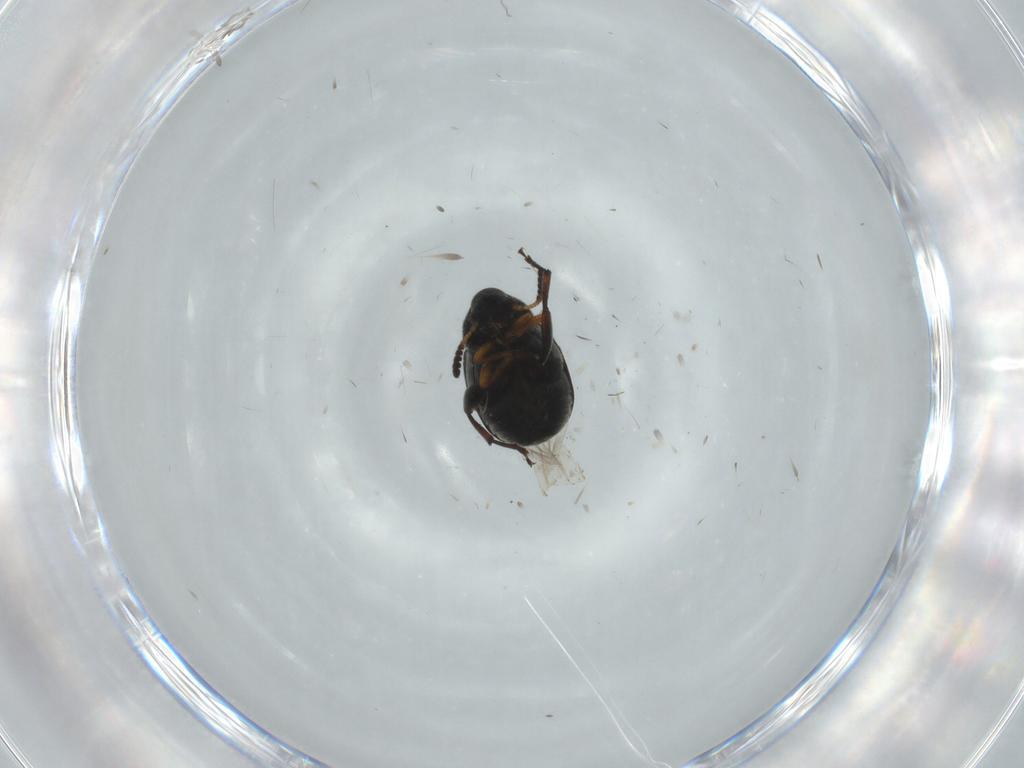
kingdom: Animalia
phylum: Arthropoda
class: Insecta
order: Coleoptera
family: Chrysomelidae
